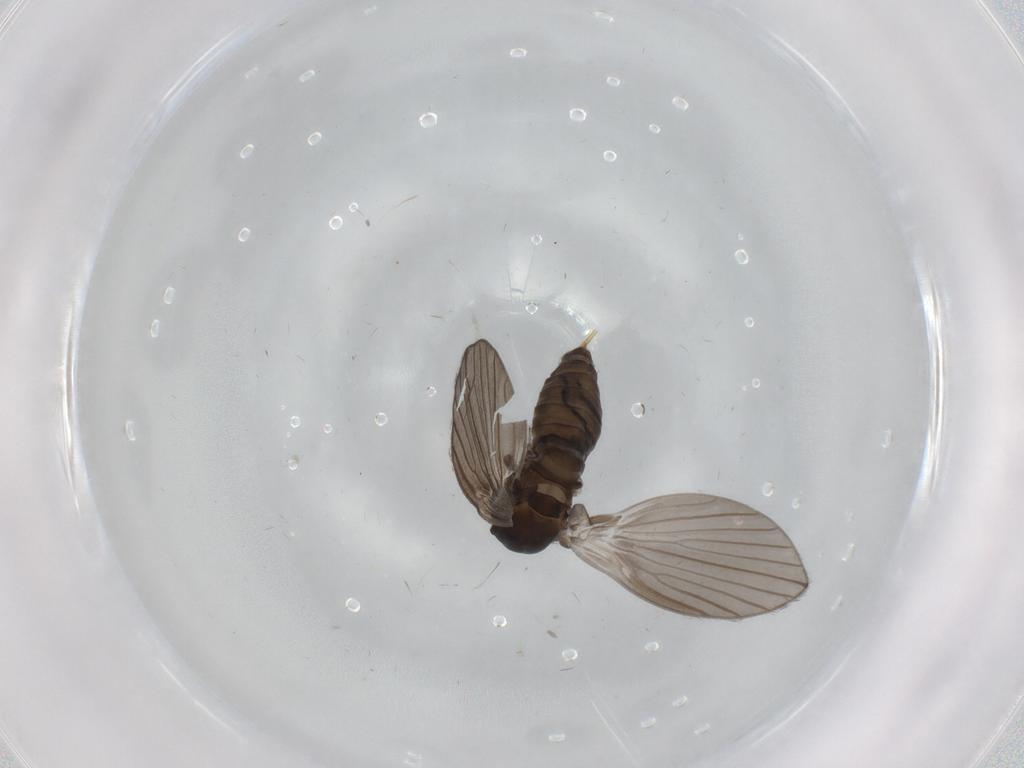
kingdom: Animalia
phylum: Arthropoda
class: Insecta
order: Diptera
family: Psychodidae
